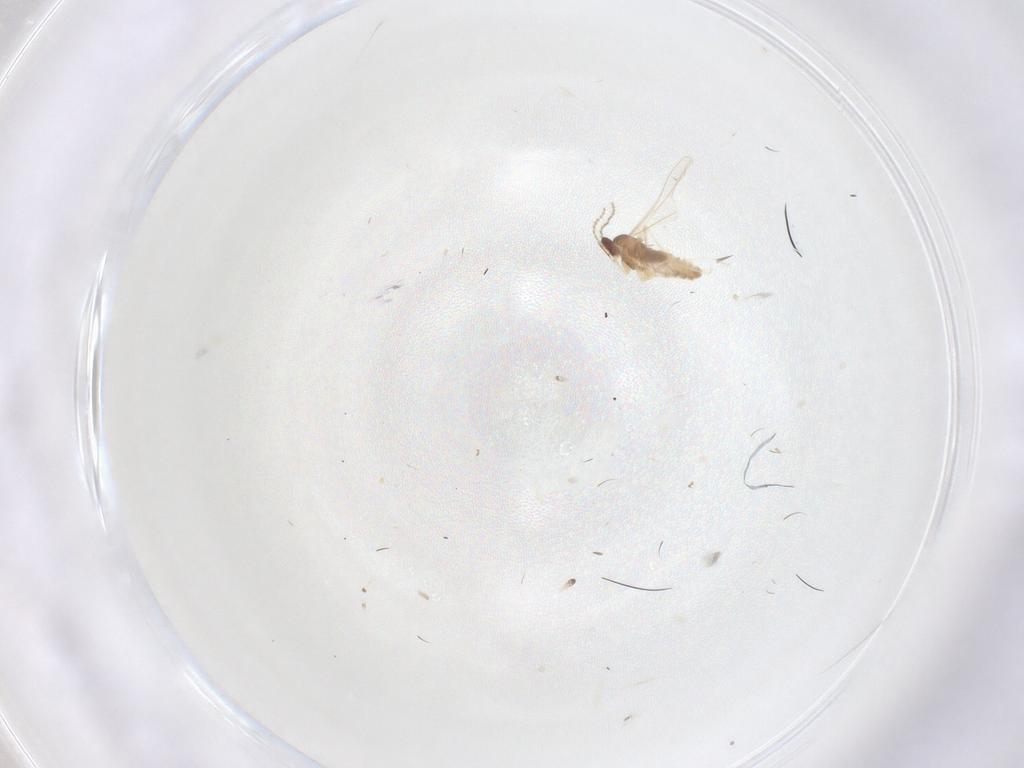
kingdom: Animalia
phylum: Arthropoda
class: Insecta
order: Diptera
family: Cecidomyiidae
